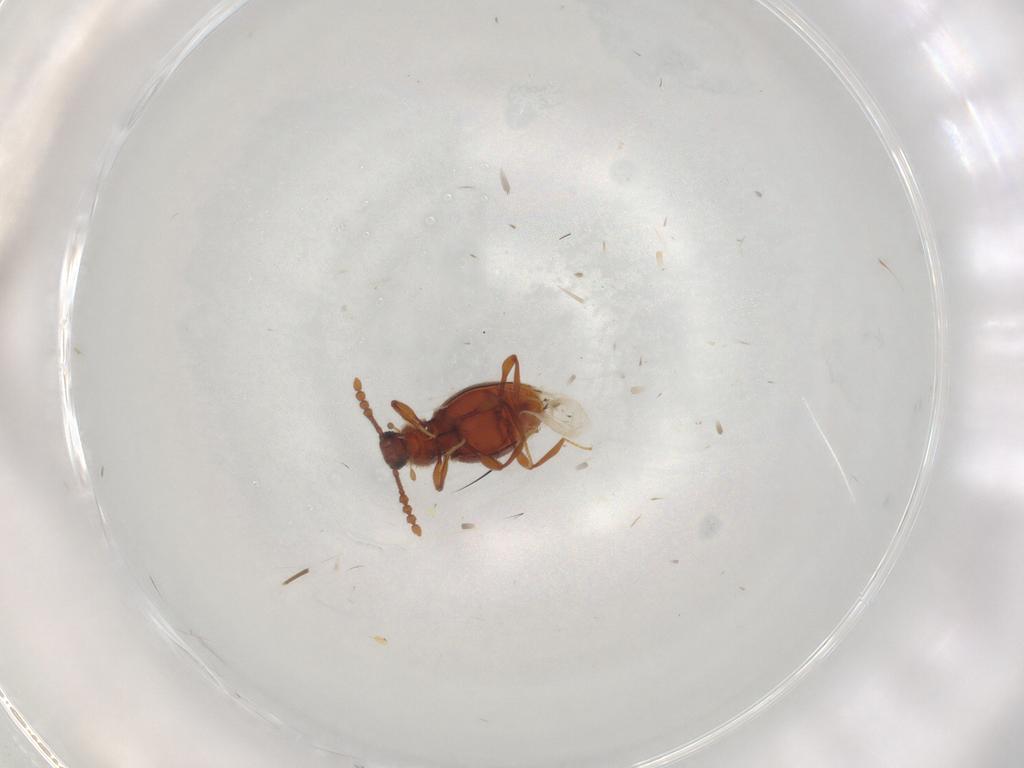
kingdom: Animalia
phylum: Arthropoda
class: Insecta
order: Coleoptera
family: Staphylinidae
